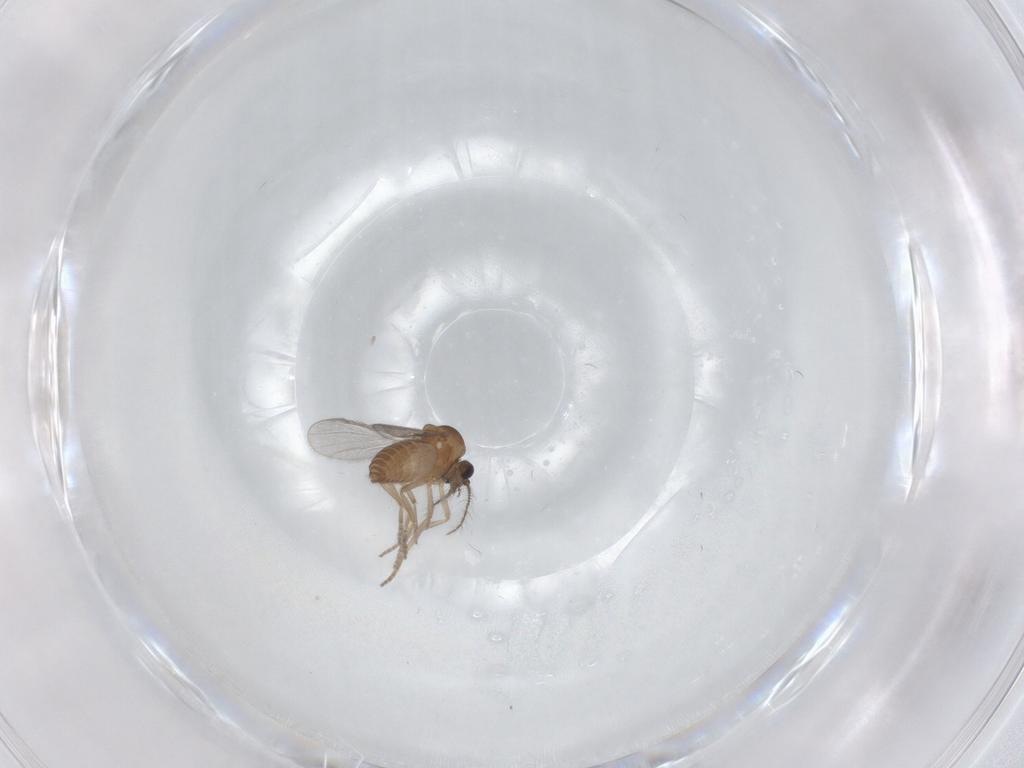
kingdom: Animalia
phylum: Arthropoda
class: Insecta
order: Diptera
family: Ceratopogonidae
